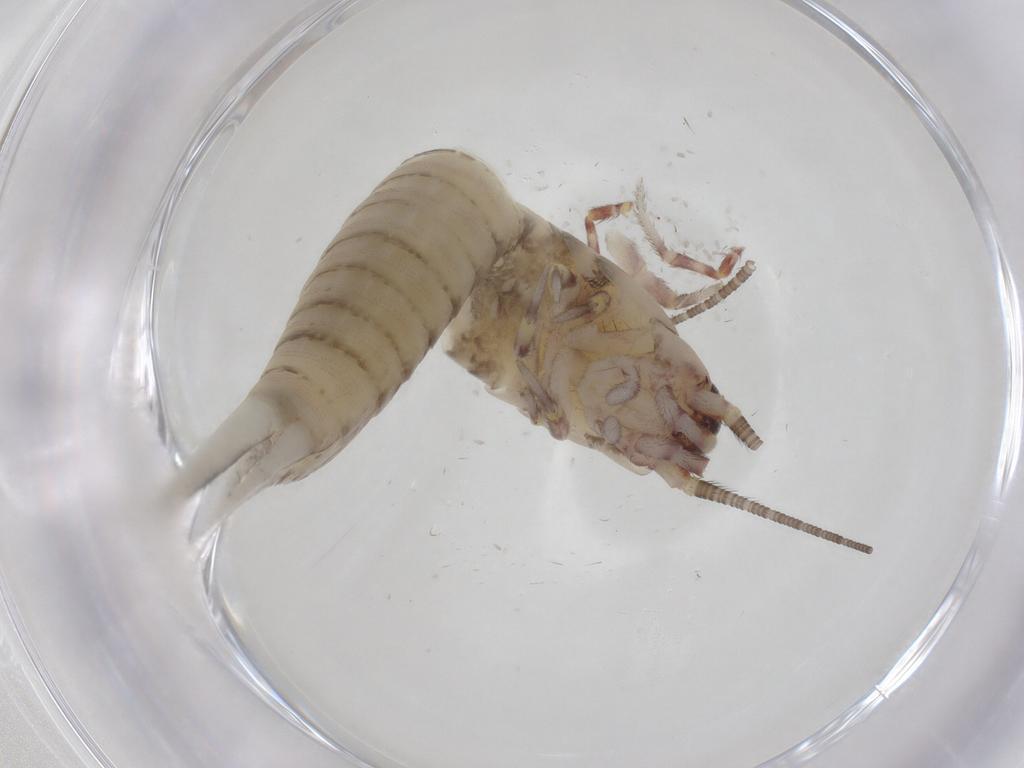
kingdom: Animalia
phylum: Arthropoda
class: Insecta
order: Archaeognatha
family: Machilidae
